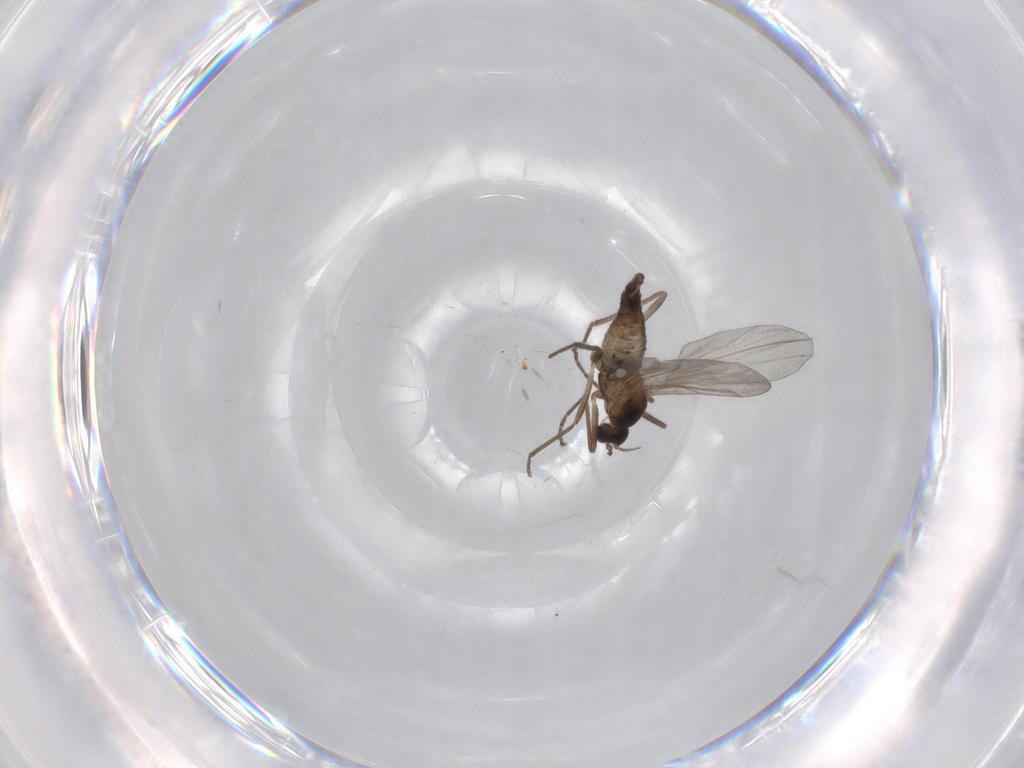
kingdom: Animalia
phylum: Arthropoda
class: Insecta
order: Diptera
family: Cecidomyiidae
